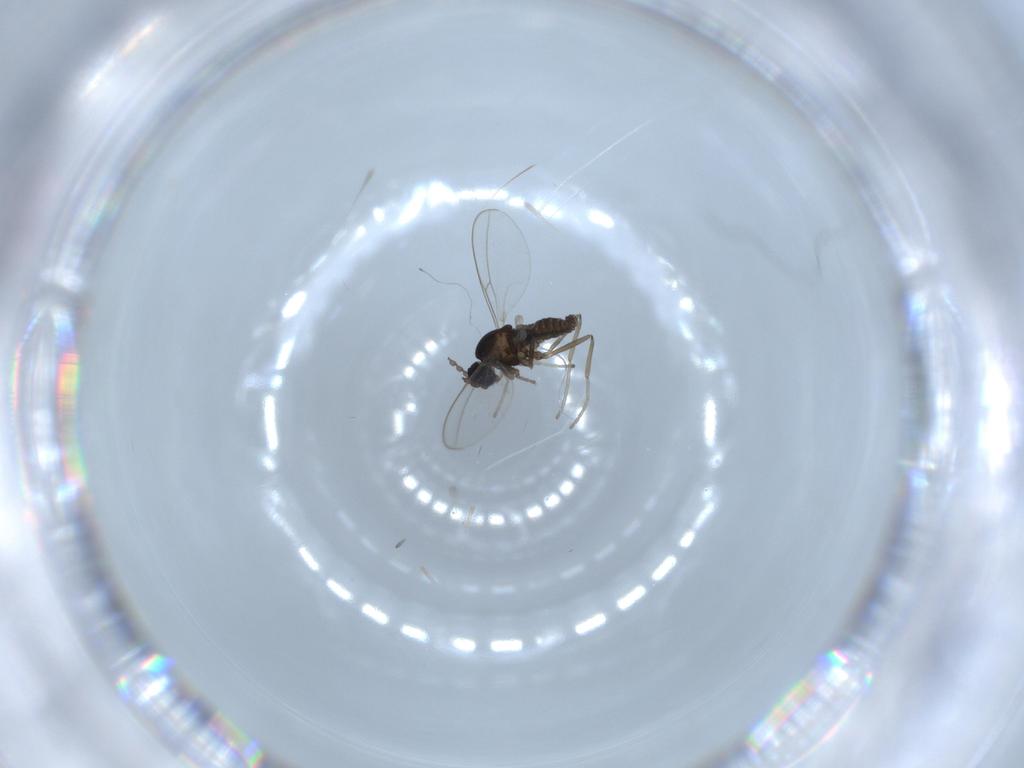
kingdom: Animalia
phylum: Arthropoda
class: Insecta
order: Diptera
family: Cecidomyiidae
